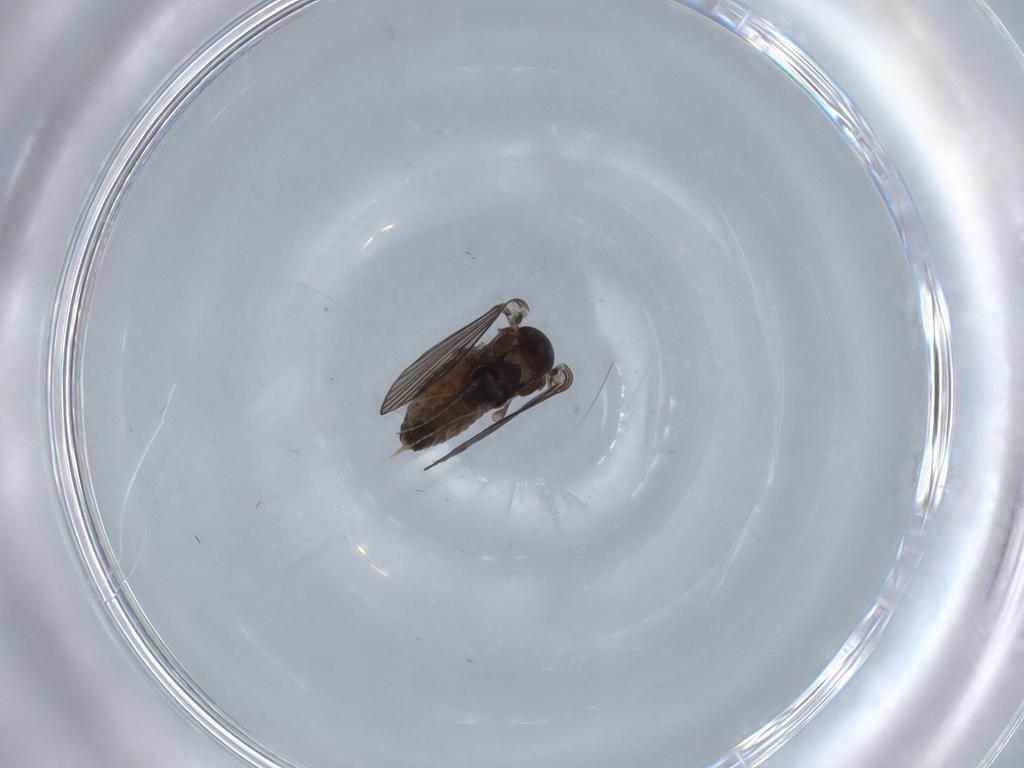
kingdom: Animalia
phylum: Arthropoda
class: Insecta
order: Diptera
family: Psychodidae
